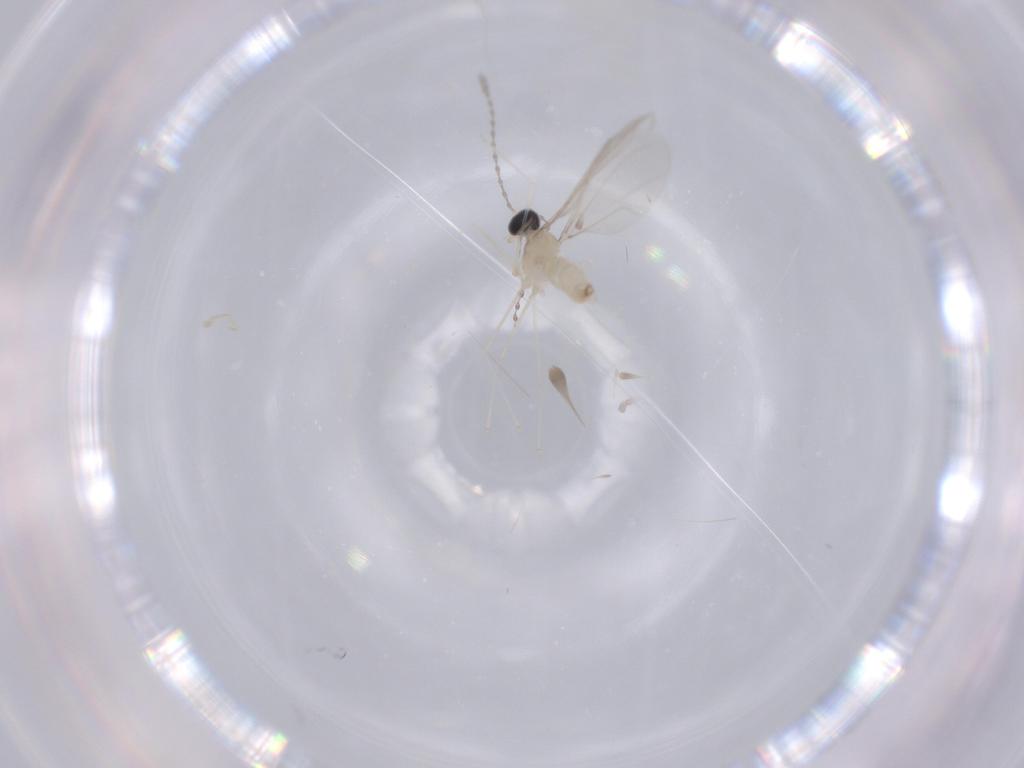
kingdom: Animalia
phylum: Arthropoda
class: Insecta
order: Diptera
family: Cecidomyiidae
